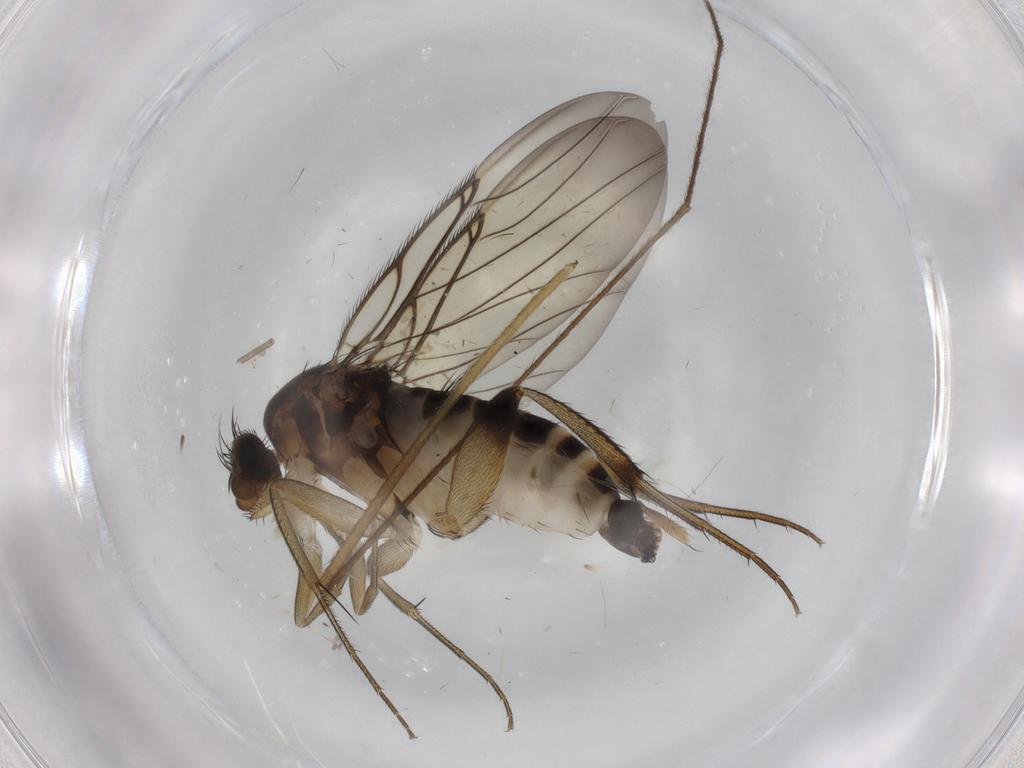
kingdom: Animalia
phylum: Arthropoda
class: Insecta
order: Diptera
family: Phoridae
